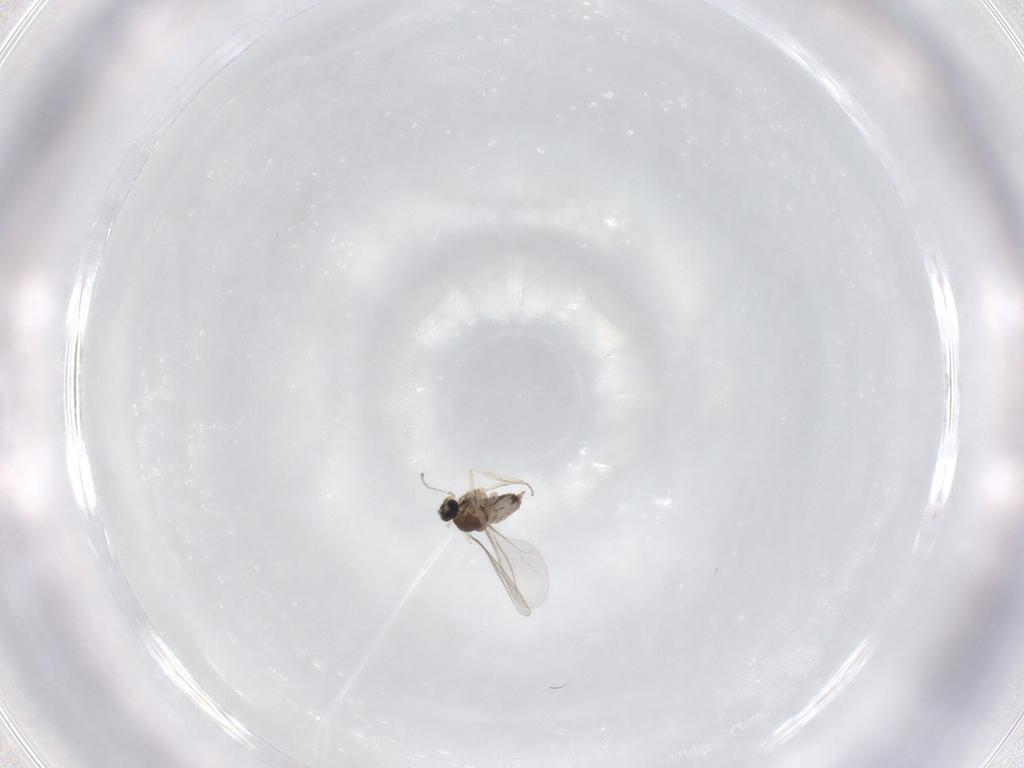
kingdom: Animalia
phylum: Arthropoda
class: Insecta
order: Diptera
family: Cecidomyiidae
